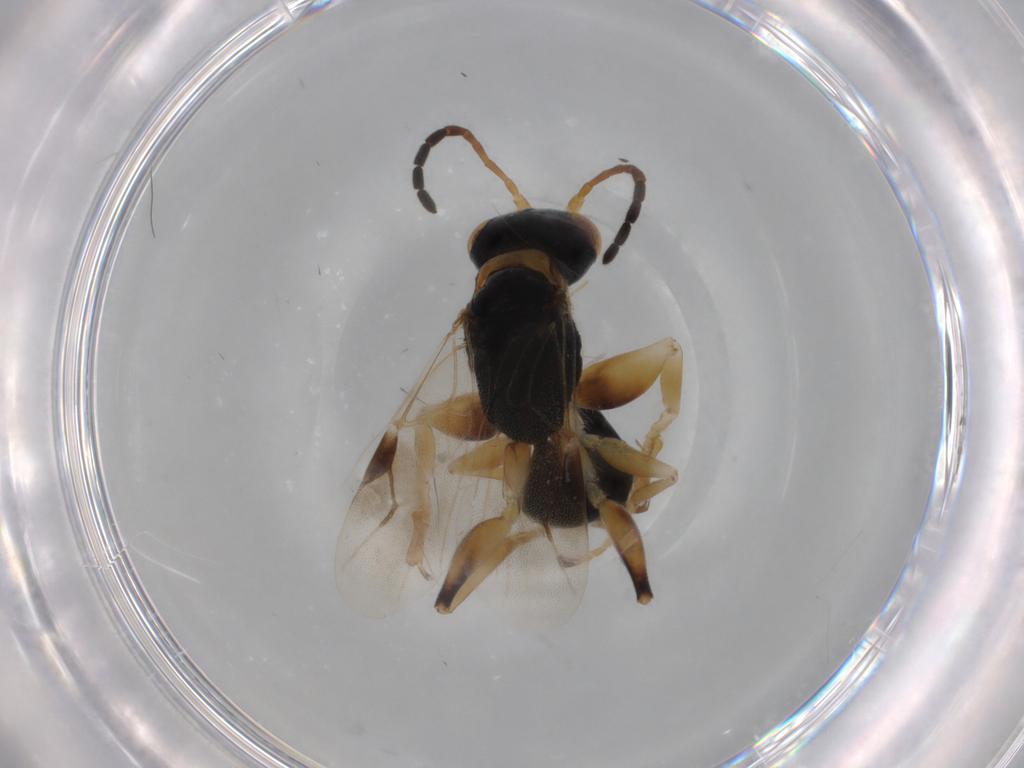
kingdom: Animalia
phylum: Arthropoda
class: Insecta
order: Hymenoptera
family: Dryinidae
